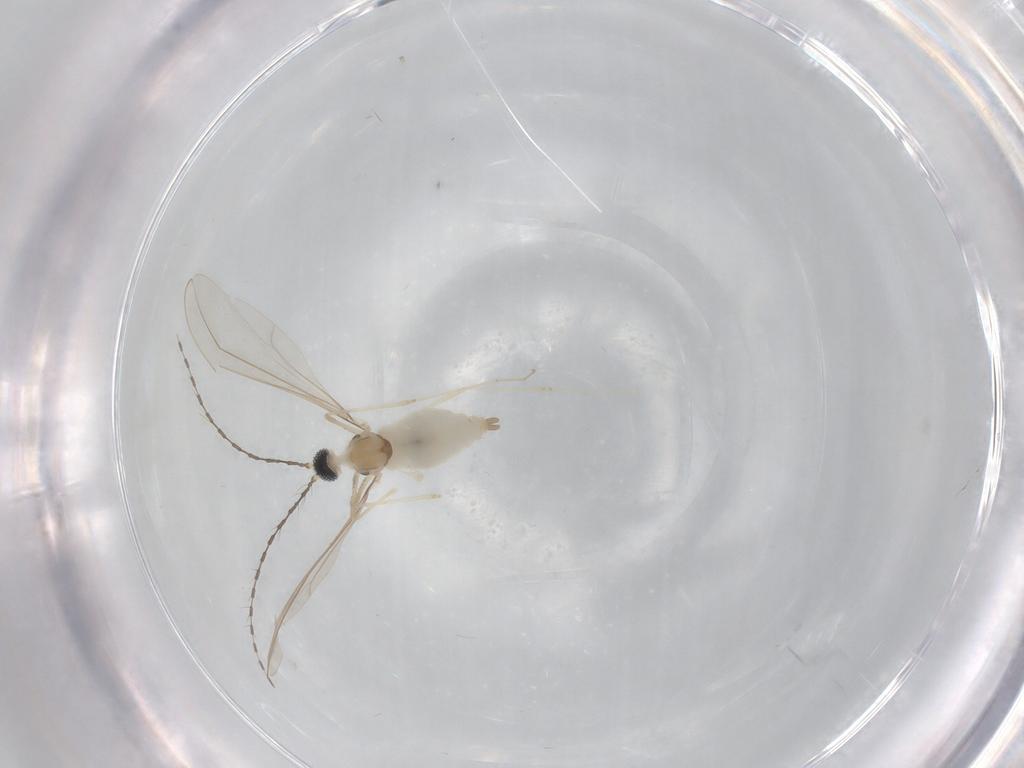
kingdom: Animalia
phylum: Arthropoda
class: Insecta
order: Diptera
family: Cecidomyiidae
